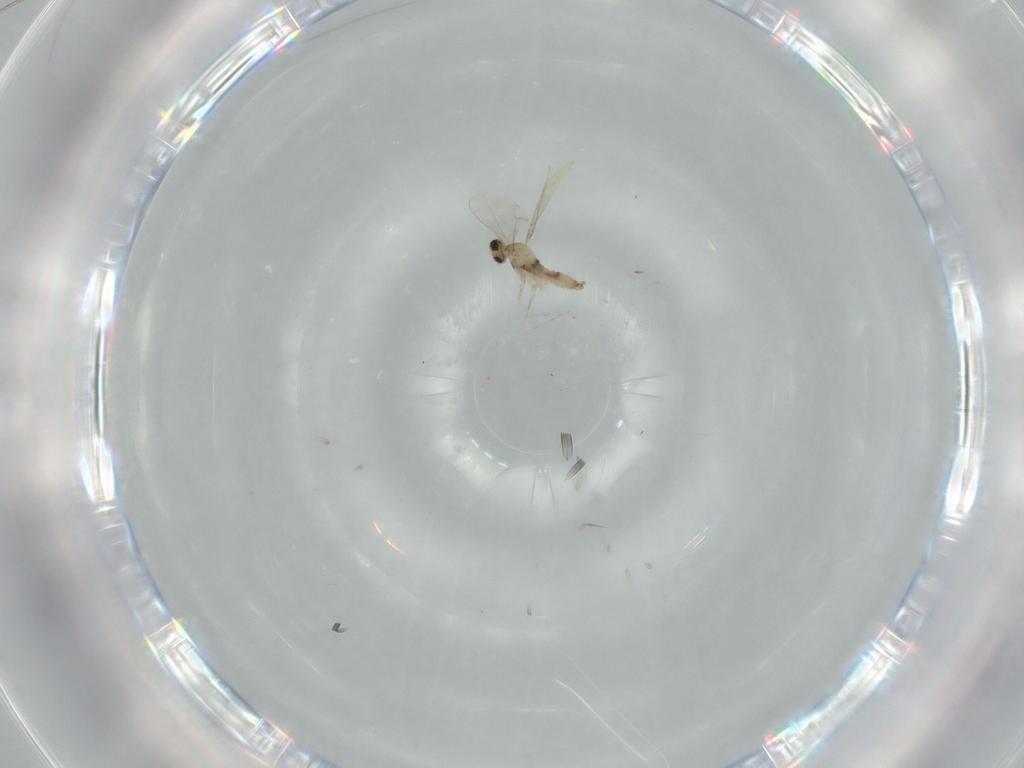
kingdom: Animalia
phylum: Arthropoda
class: Insecta
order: Diptera
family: Cecidomyiidae
